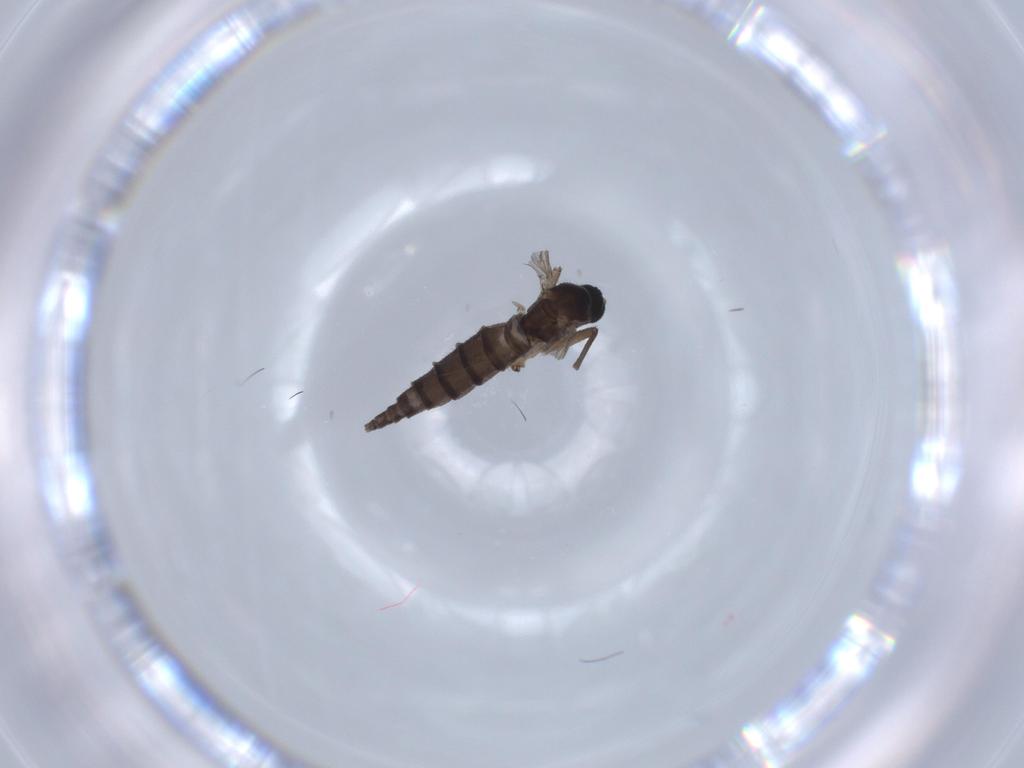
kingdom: Animalia
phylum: Arthropoda
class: Insecta
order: Diptera
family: Sciaridae
